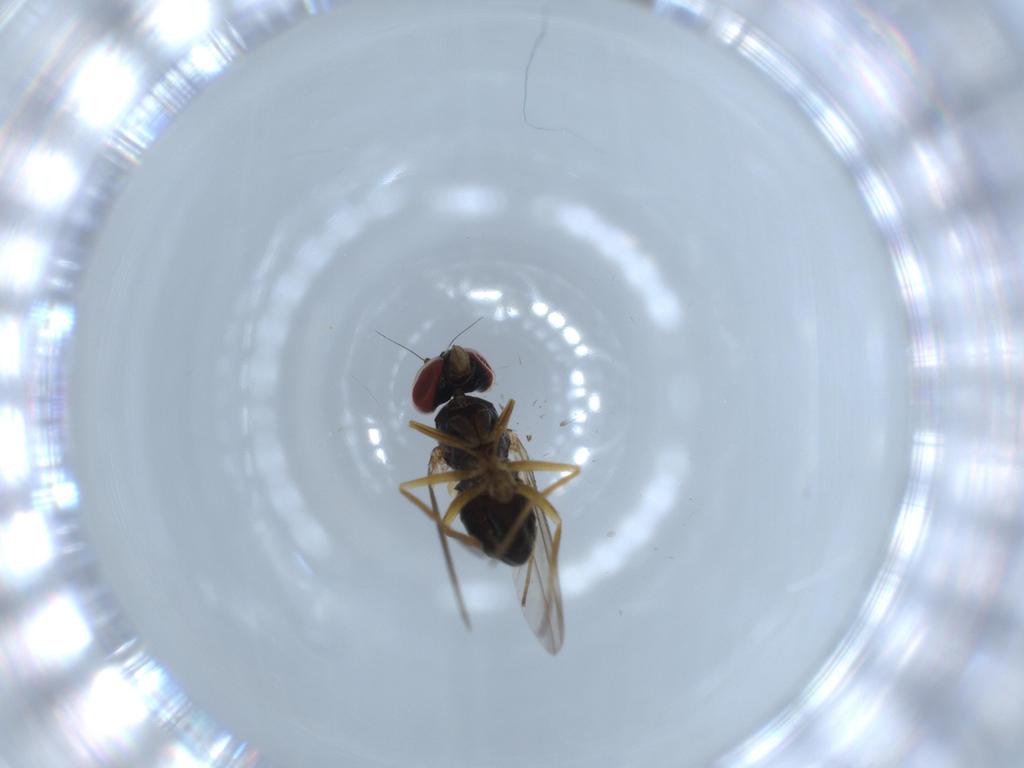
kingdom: Animalia
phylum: Arthropoda
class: Insecta
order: Diptera
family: Dolichopodidae
